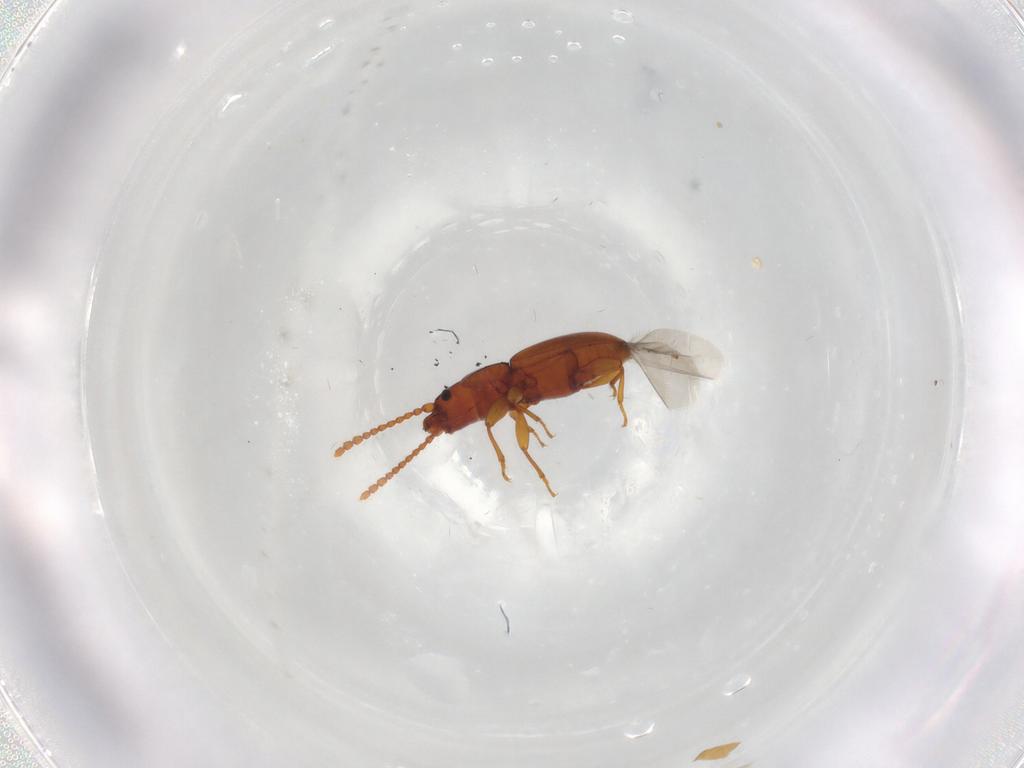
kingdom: Animalia
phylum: Arthropoda
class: Insecta
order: Coleoptera
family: Laemophloeidae
